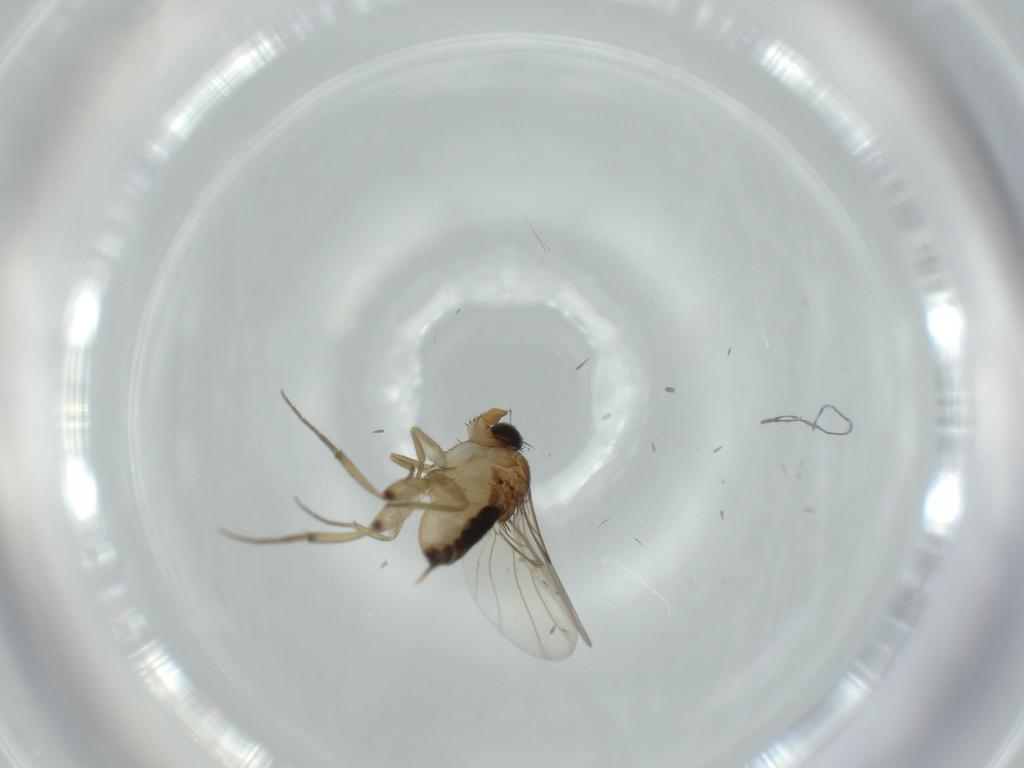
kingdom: Animalia
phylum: Arthropoda
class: Insecta
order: Diptera
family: Dolichopodidae
